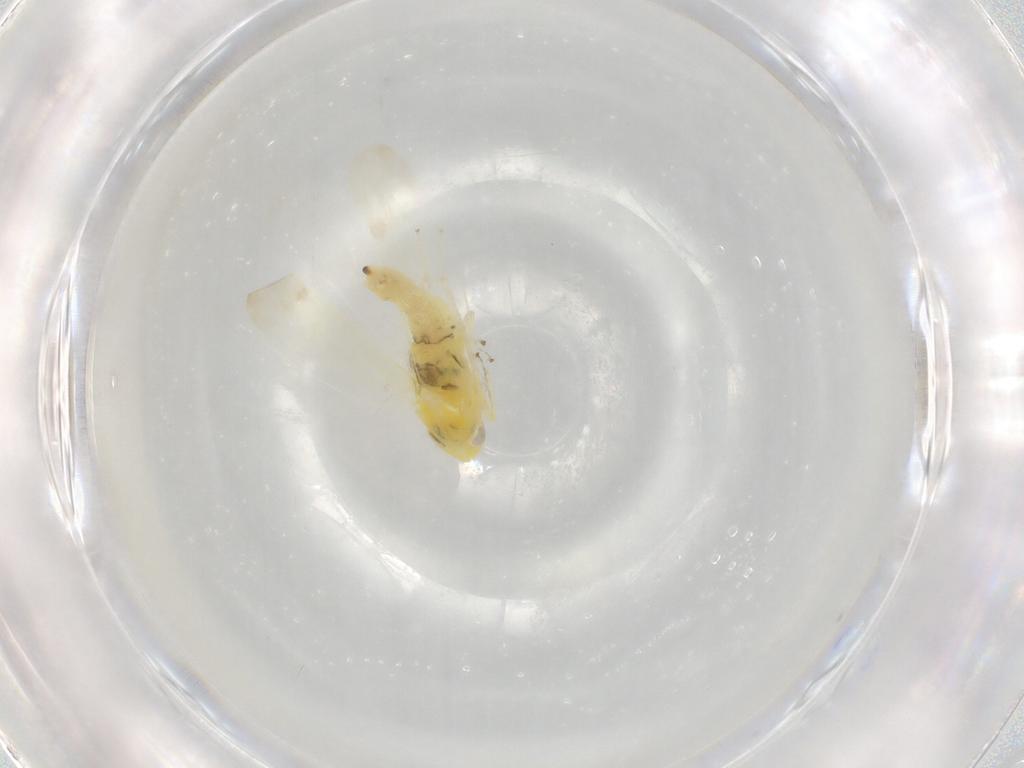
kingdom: Animalia
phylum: Arthropoda
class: Insecta
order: Hemiptera
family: Cicadellidae
